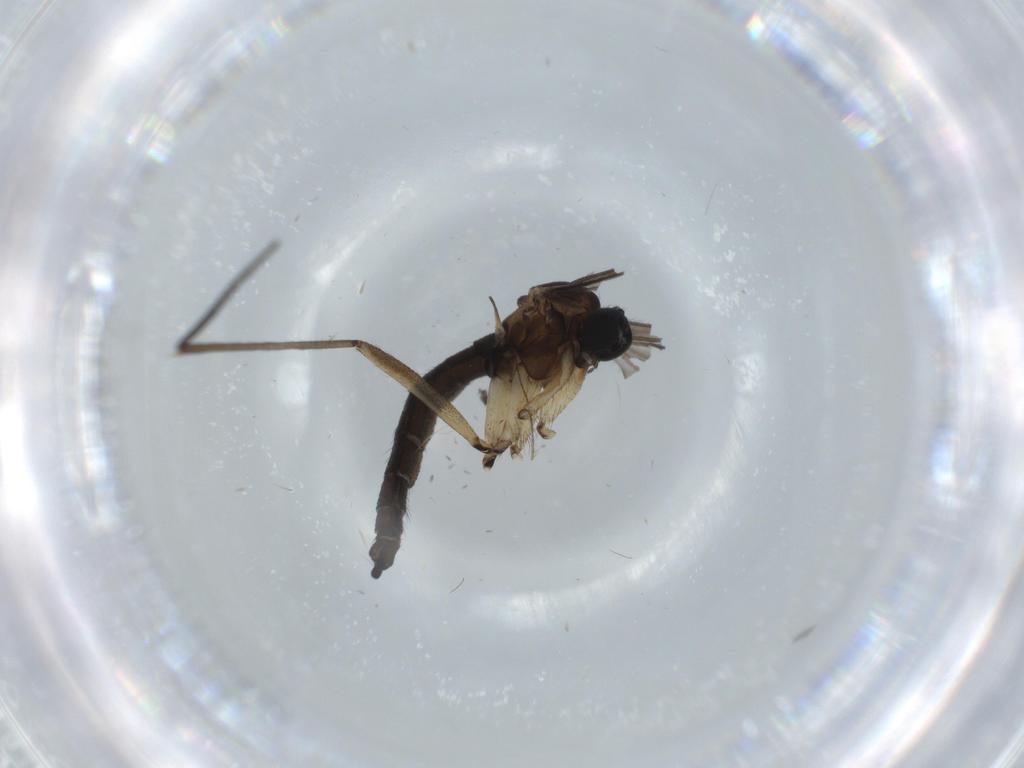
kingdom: Animalia
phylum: Arthropoda
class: Insecta
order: Diptera
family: Sciaridae
